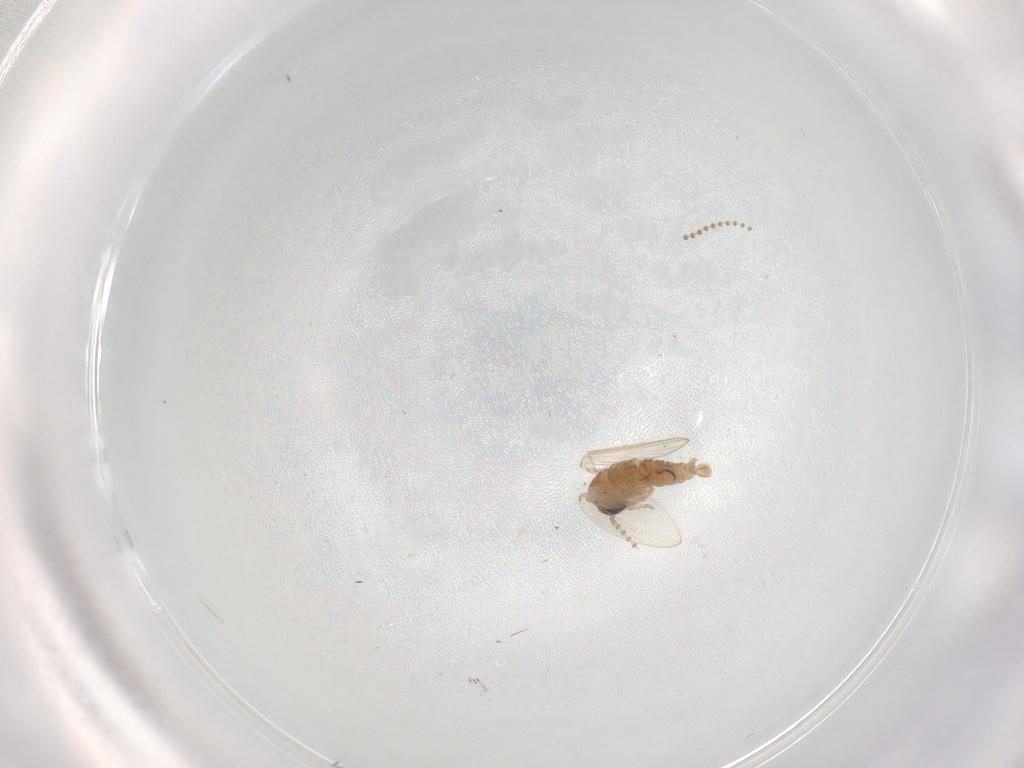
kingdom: Animalia
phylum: Arthropoda
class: Insecta
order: Diptera
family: Psychodidae
